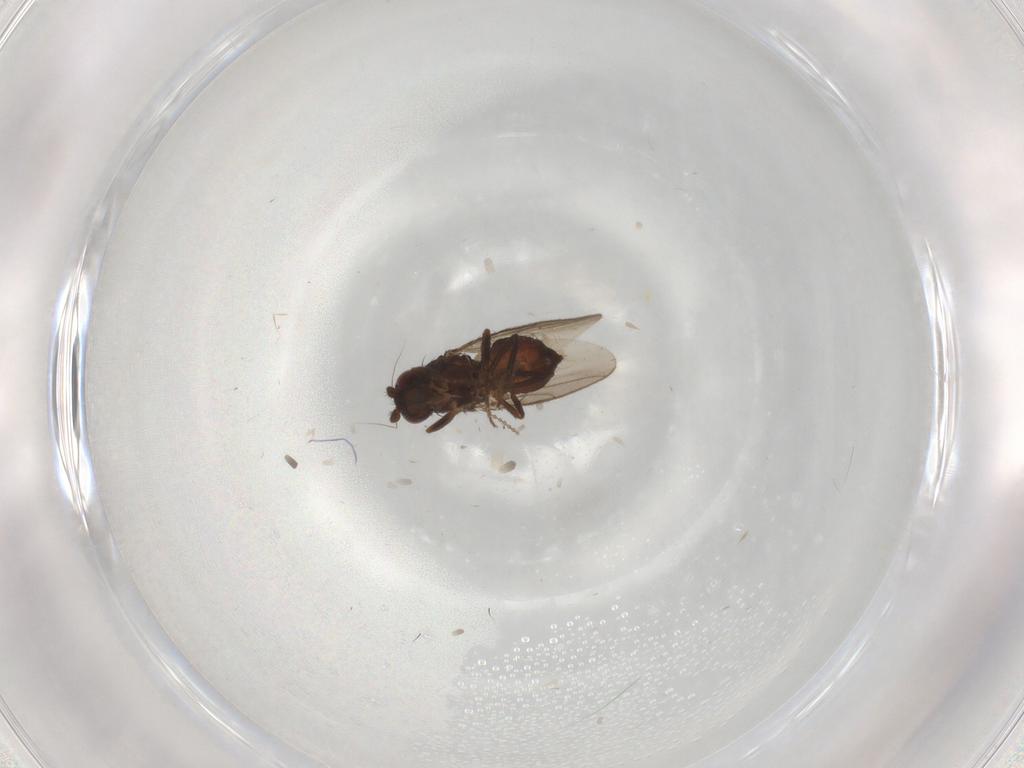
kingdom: Animalia
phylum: Arthropoda
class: Insecta
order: Diptera
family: Sphaeroceridae
